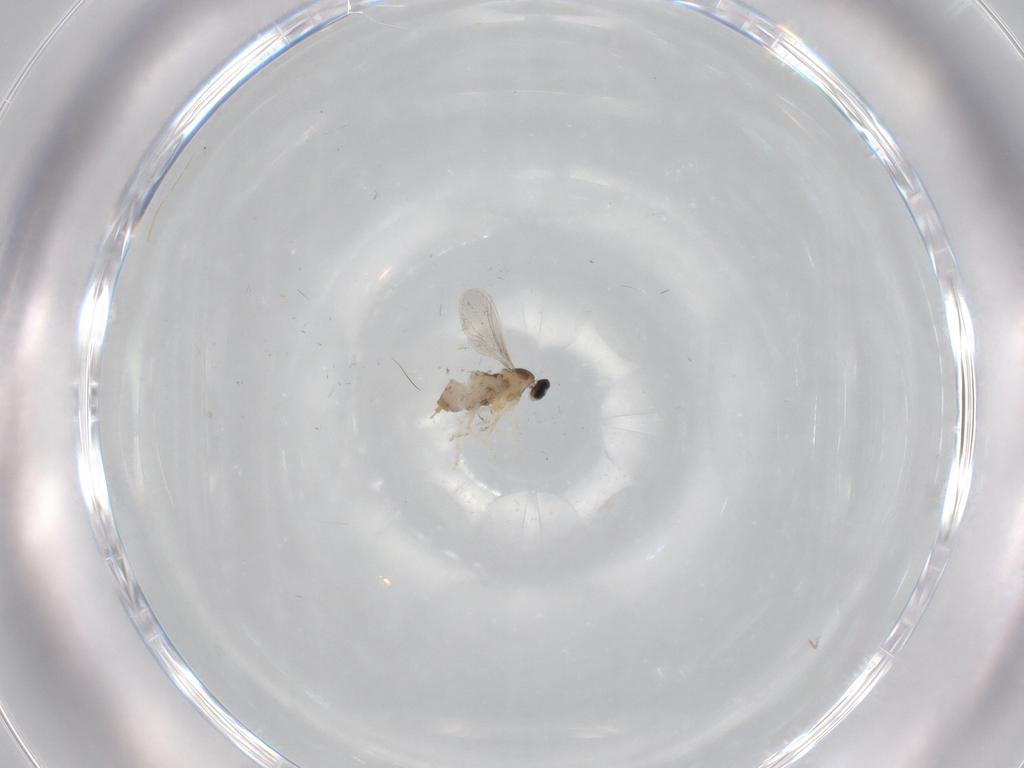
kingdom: Animalia
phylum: Arthropoda
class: Insecta
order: Diptera
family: Cecidomyiidae
